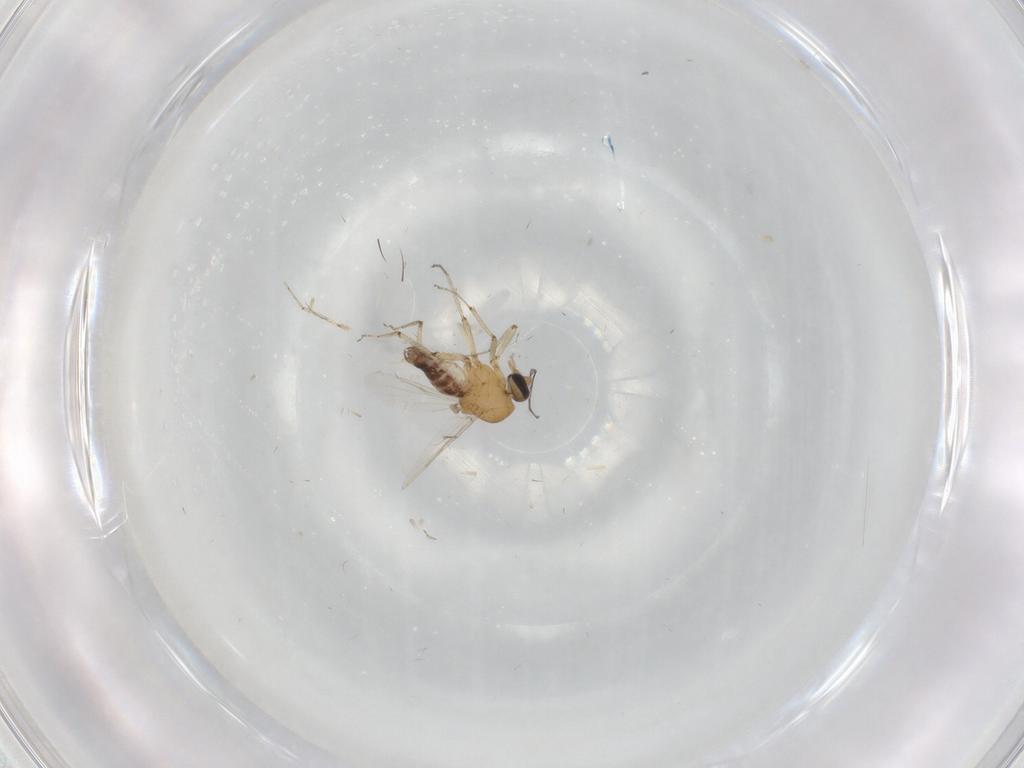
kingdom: Animalia
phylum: Arthropoda
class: Insecta
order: Diptera
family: Ceratopogonidae
